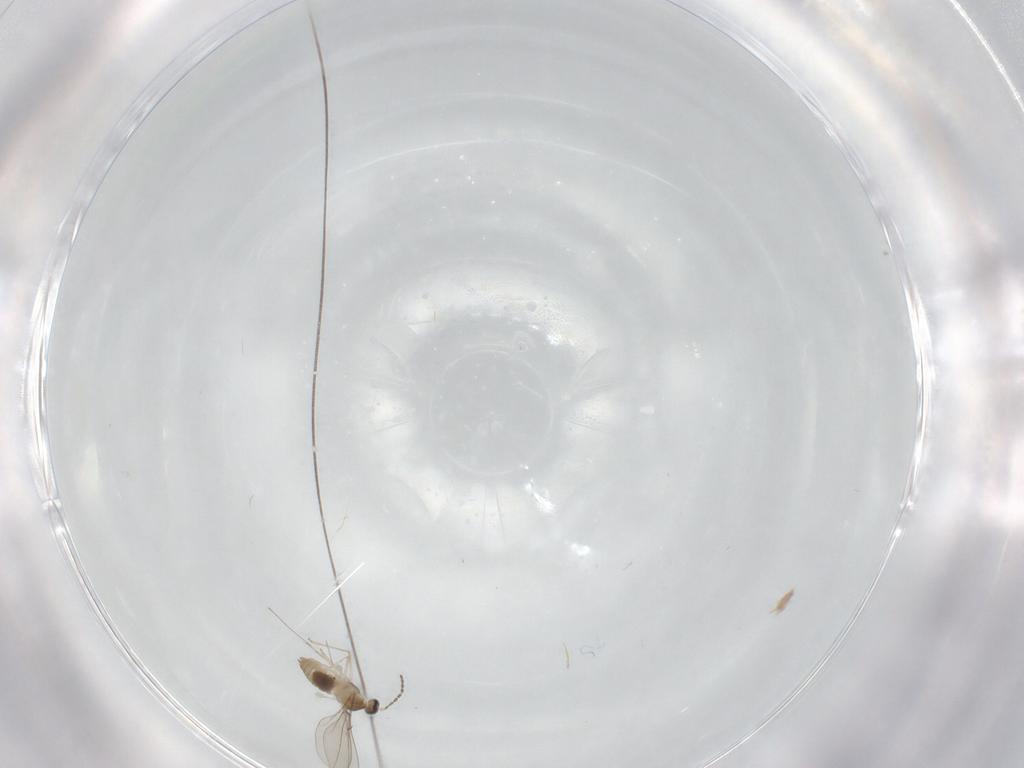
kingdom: Animalia
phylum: Arthropoda
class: Insecta
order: Diptera
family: Cecidomyiidae
